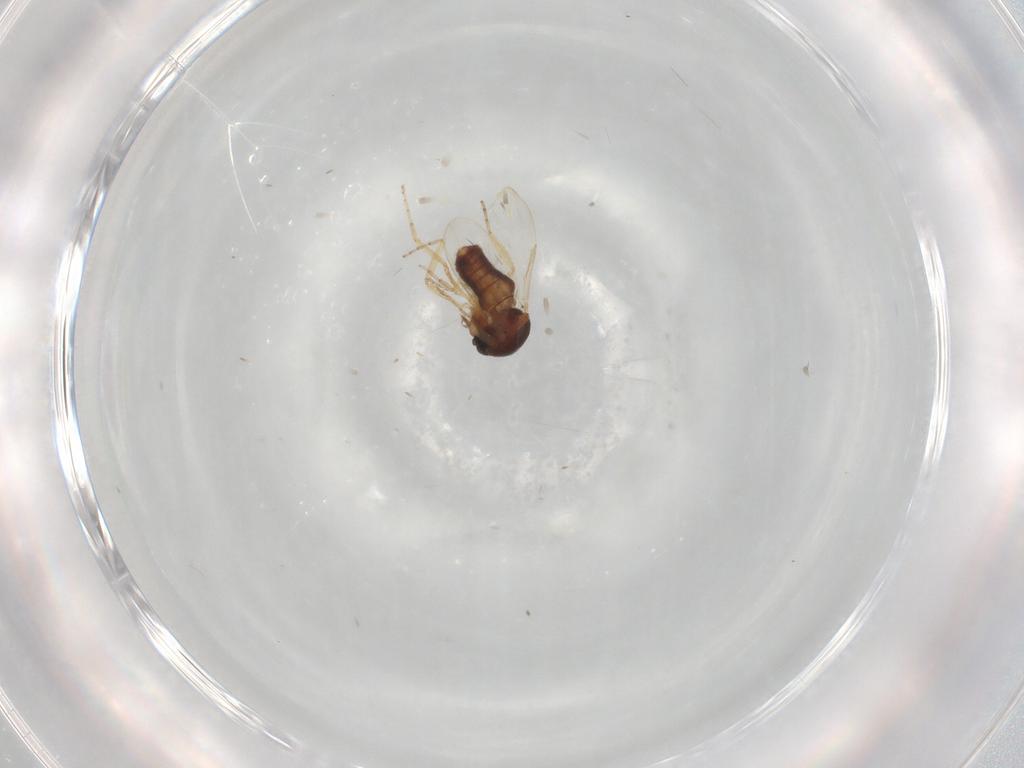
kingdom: Animalia
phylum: Arthropoda
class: Insecta
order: Diptera
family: Ceratopogonidae
